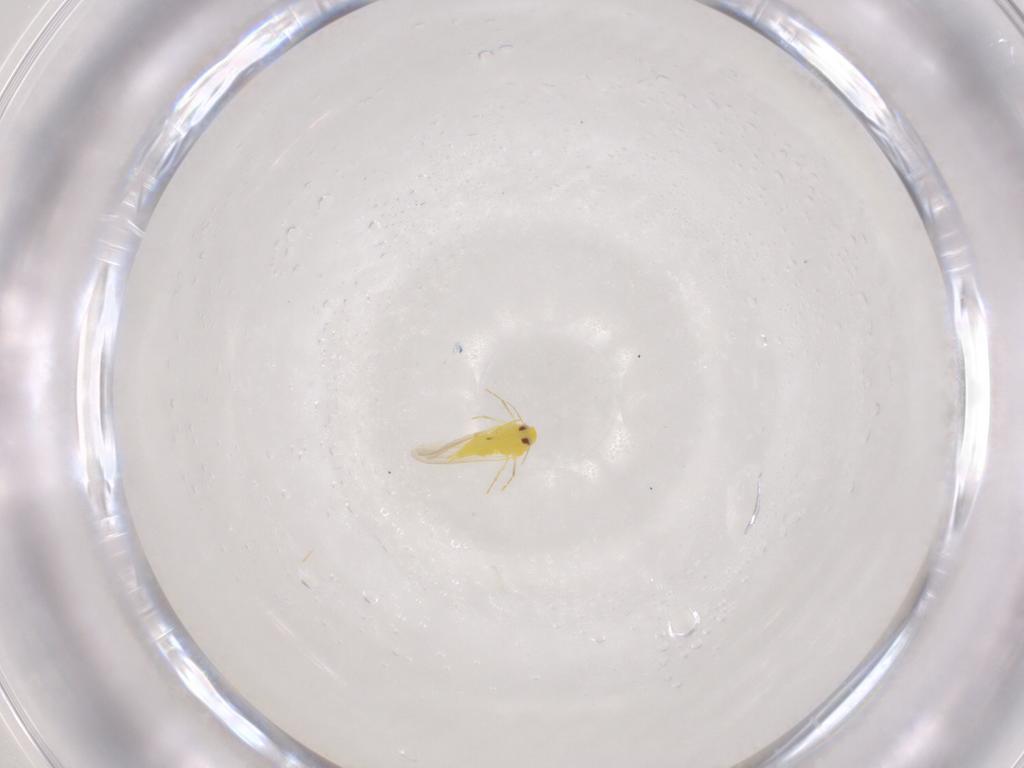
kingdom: Animalia
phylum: Arthropoda
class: Insecta
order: Hemiptera
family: Aleyrodidae
